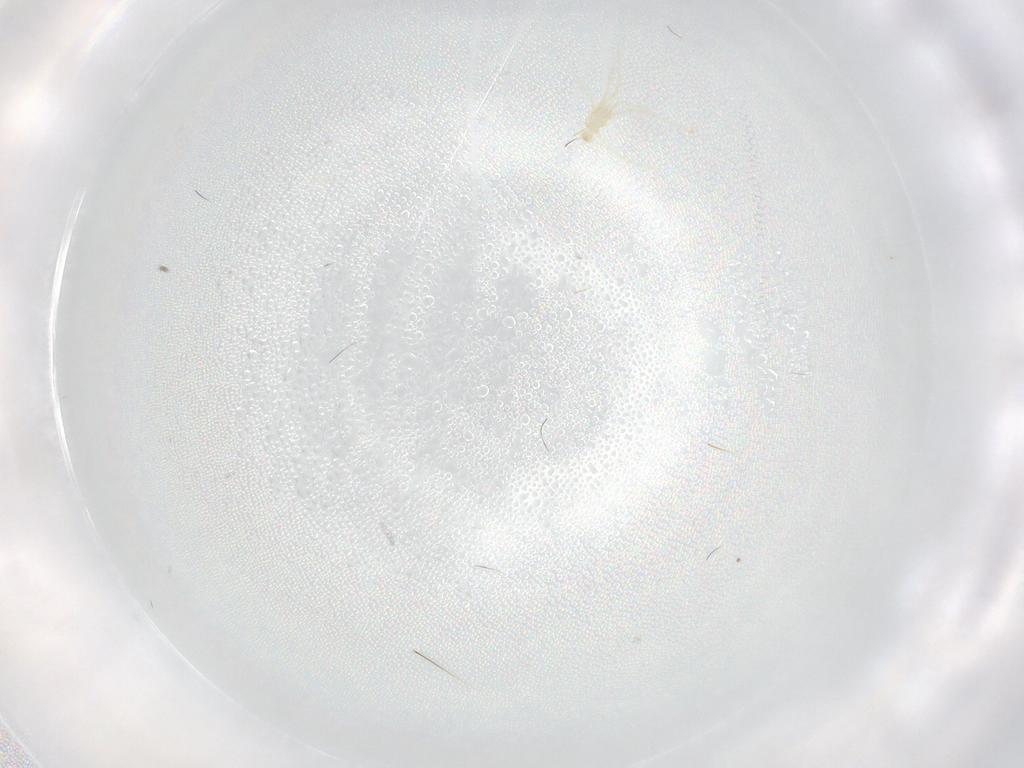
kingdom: Animalia
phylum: Arthropoda
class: Arachnida
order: Araneae
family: Sparassidae
